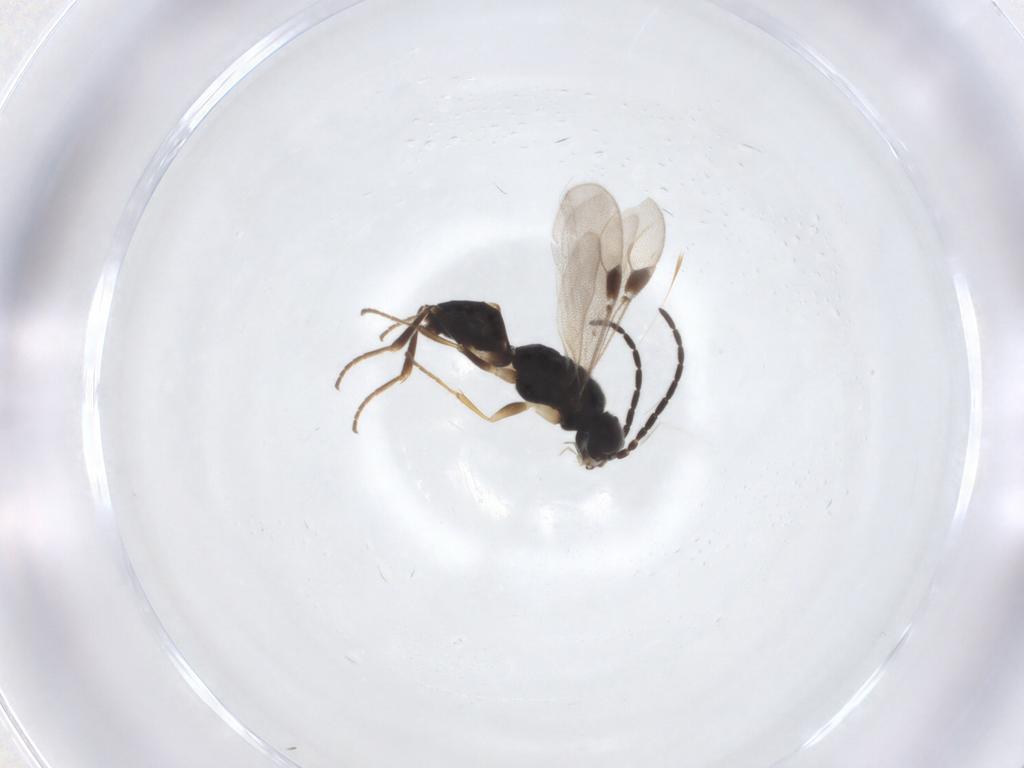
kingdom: Animalia
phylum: Arthropoda
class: Insecta
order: Hymenoptera
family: Dryinidae
